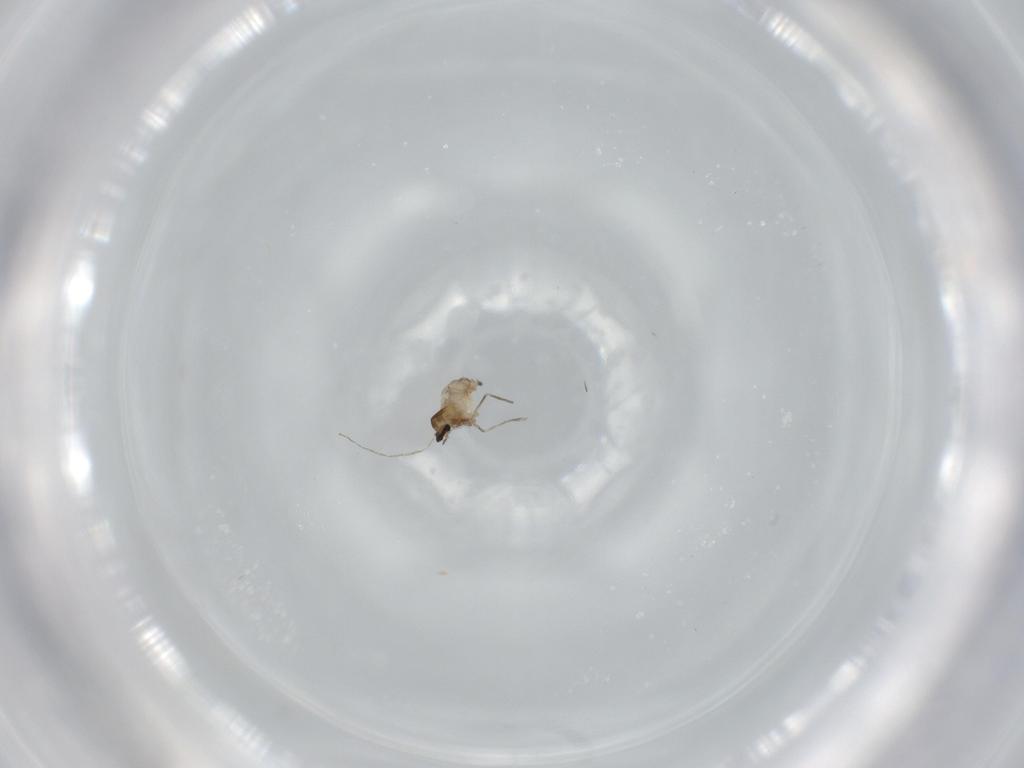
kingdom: Animalia
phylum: Arthropoda
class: Insecta
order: Diptera
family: Cecidomyiidae
